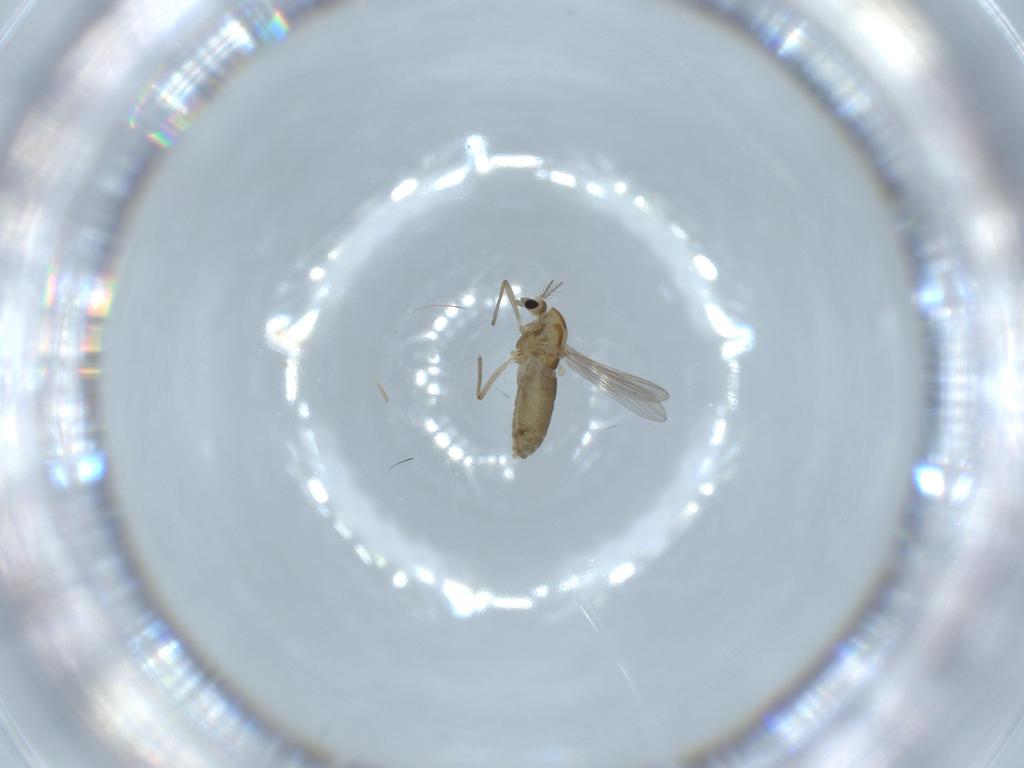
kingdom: Animalia
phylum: Arthropoda
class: Insecta
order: Diptera
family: Chironomidae
